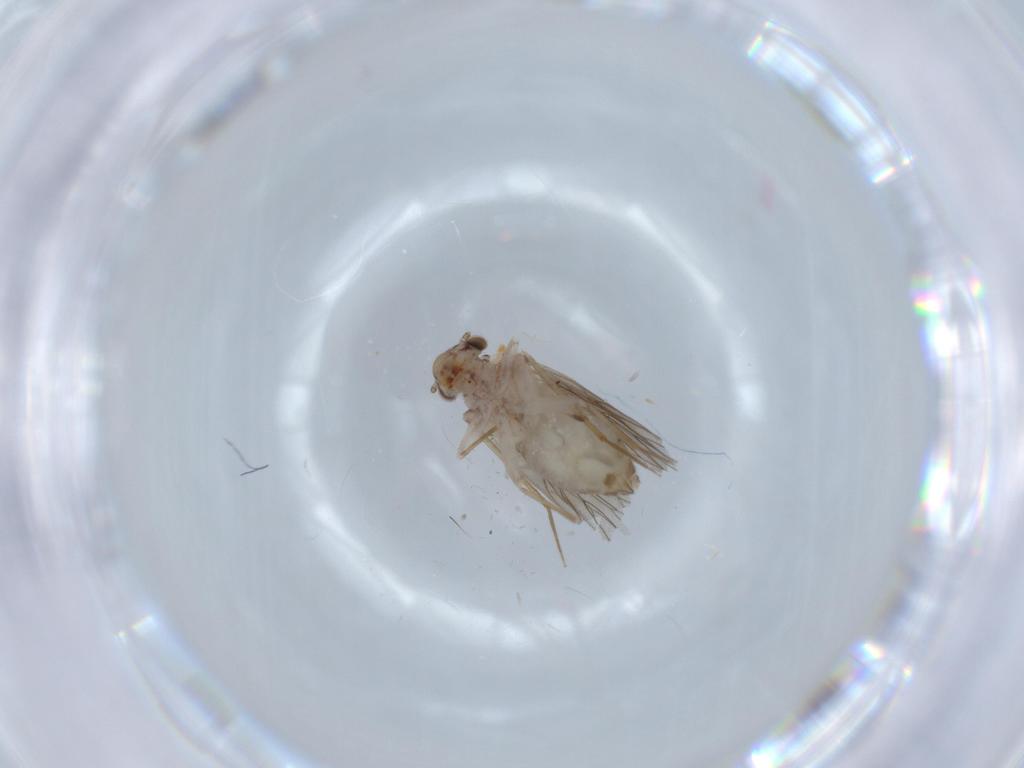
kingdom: Animalia
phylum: Arthropoda
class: Insecta
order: Psocodea
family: Lepidopsocidae
